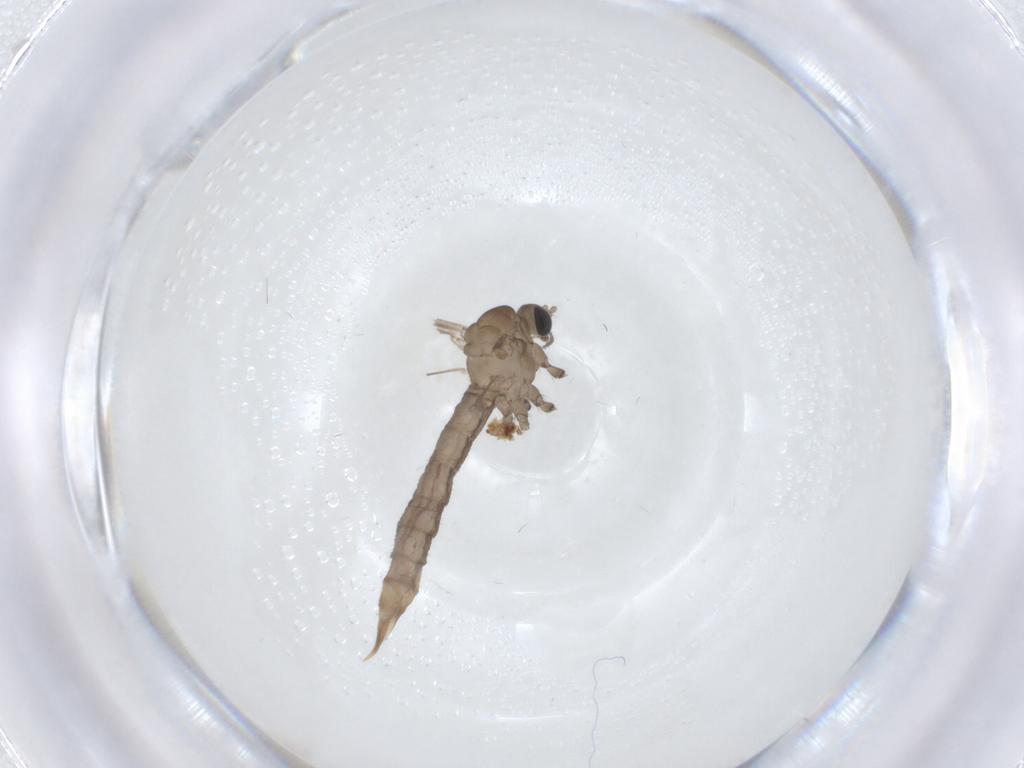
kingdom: Animalia
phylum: Arthropoda
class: Insecta
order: Diptera
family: Limoniidae
